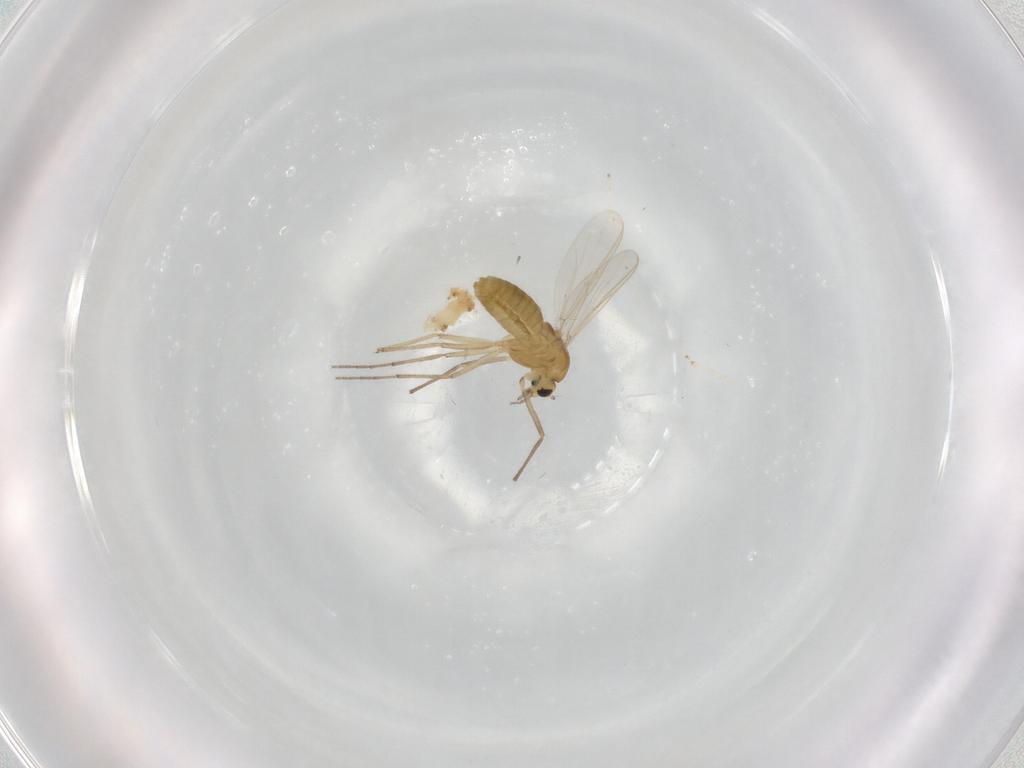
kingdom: Animalia
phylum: Arthropoda
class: Insecta
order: Diptera
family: Chironomidae
